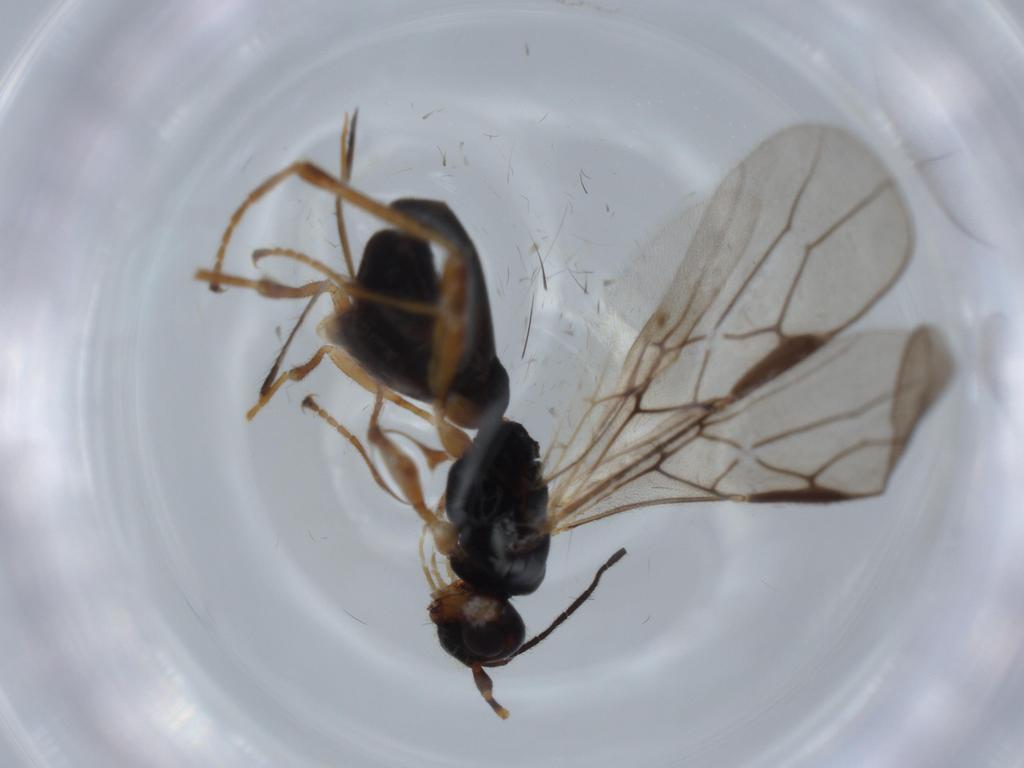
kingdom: Animalia
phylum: Arthropoda
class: Insecta
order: Hymenoptera
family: Braconidae
